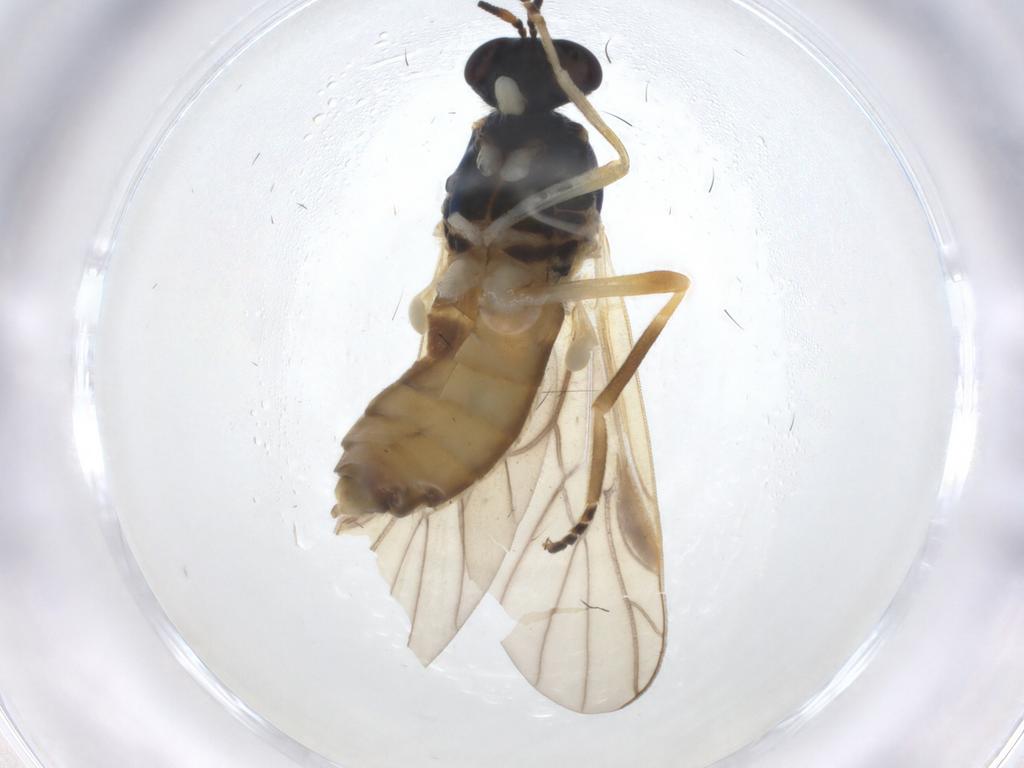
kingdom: Animalia
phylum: Arthropoda
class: Insecta
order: Diptera
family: Stratiomyidae
